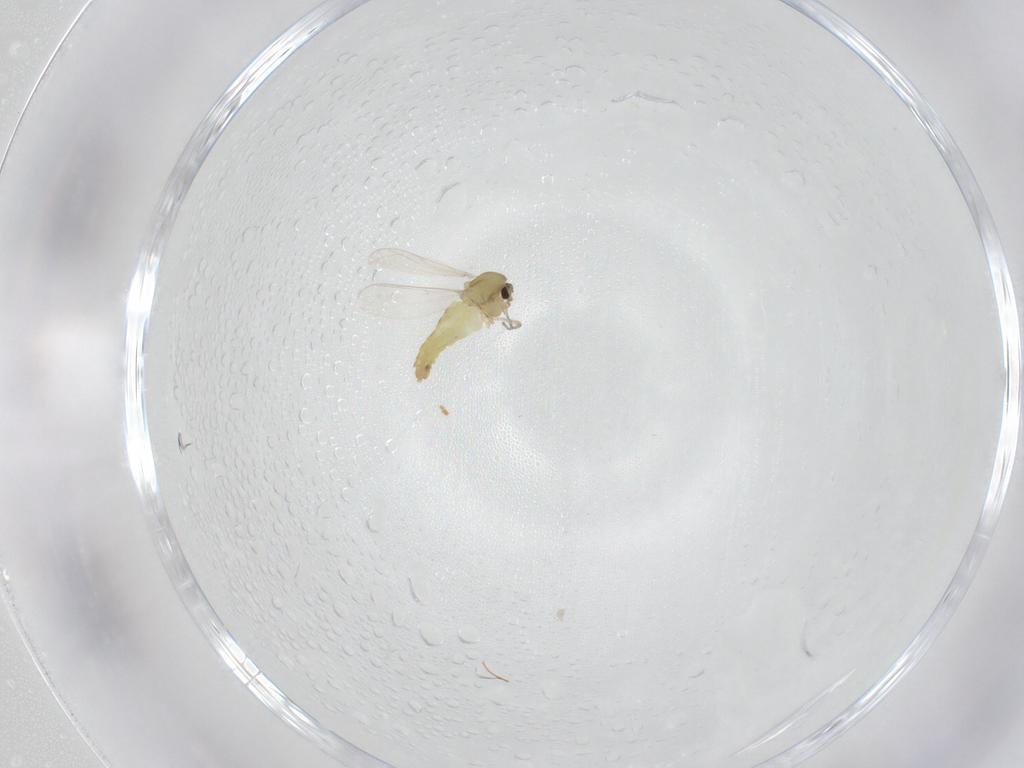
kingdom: Animalia
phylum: Arthropoda
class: Insecta
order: Diptera
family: Chironomidae
